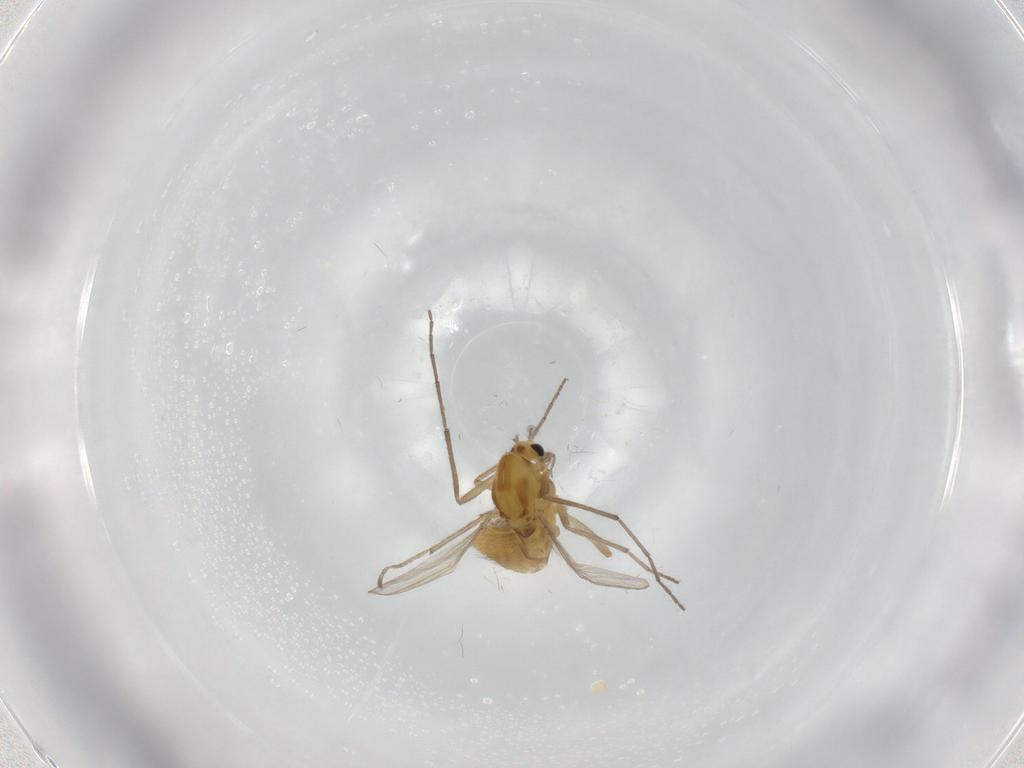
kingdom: Animalia
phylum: Arthropoda
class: Insecta
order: Diptera
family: Chironomidae
